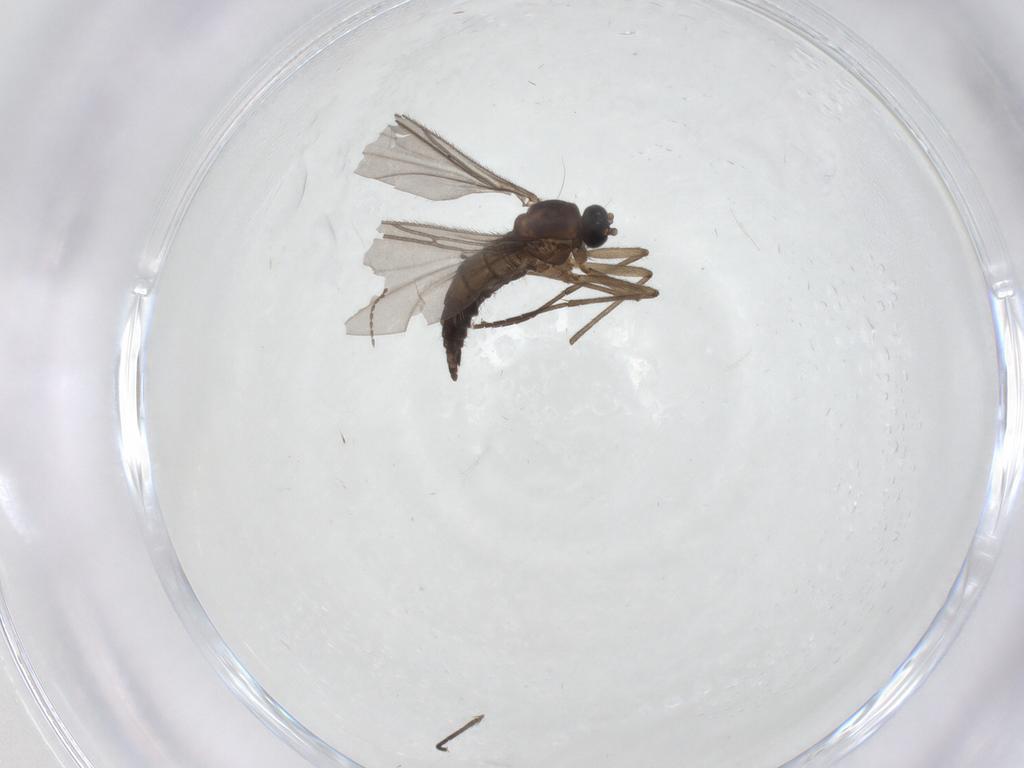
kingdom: Animalia
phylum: Arthropoda
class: Insecta
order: Diptera
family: Sciaridae
